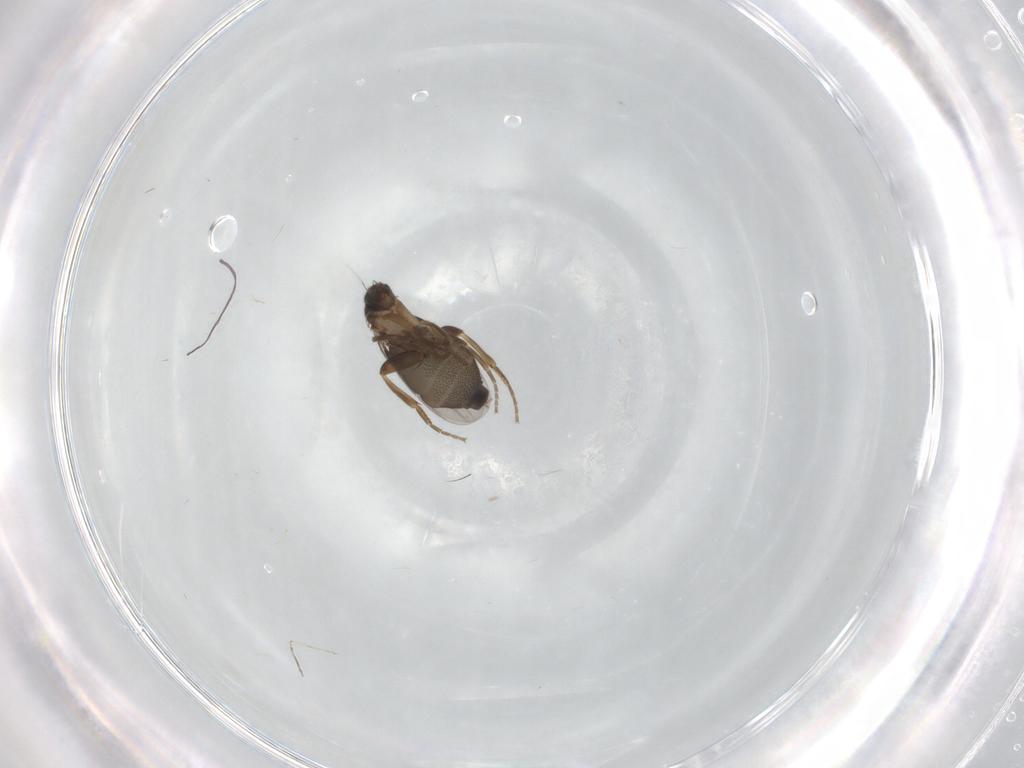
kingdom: Animalia
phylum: Arthropoda
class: Insecta
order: Diptera
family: Phoridae
